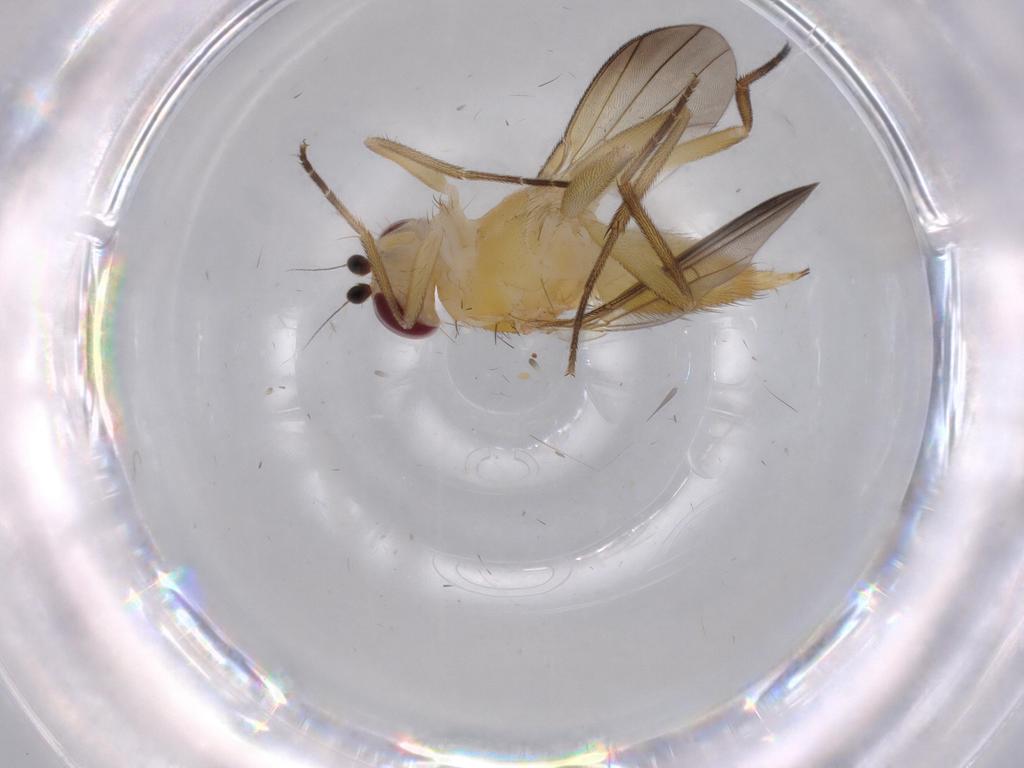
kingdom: Animalia
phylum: Arthropoda
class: Insecta
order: Diptera
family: Clusiidae
